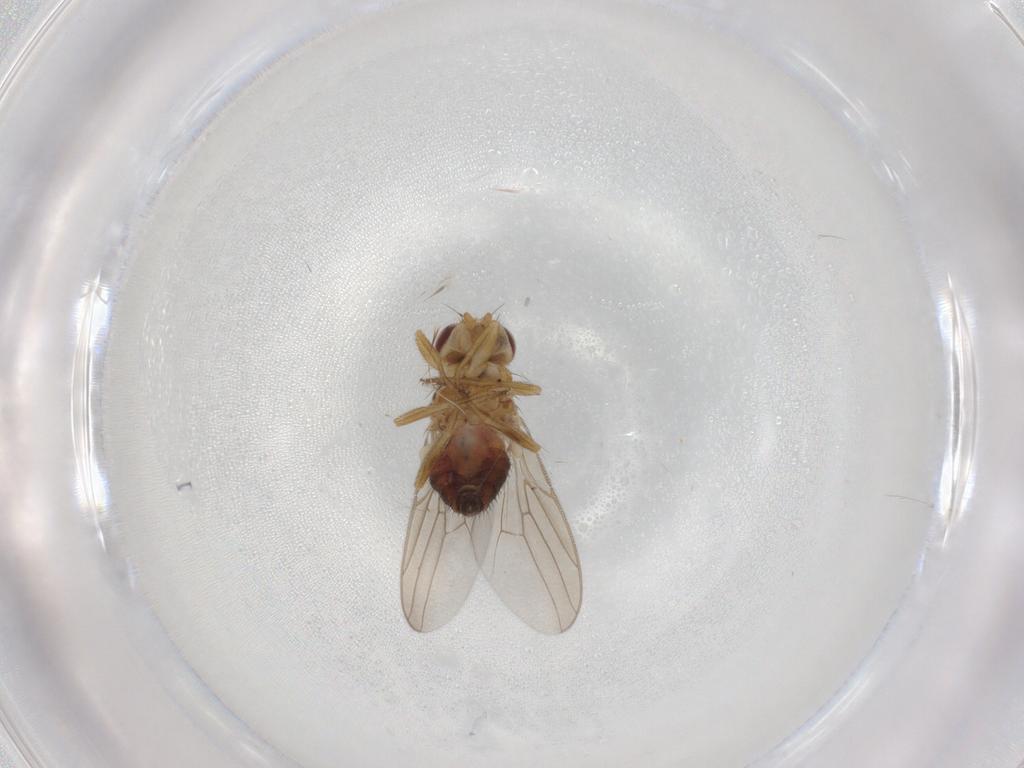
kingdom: Animalia
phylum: Arthropoda
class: Insecta
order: Diptera
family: Chloropidae
